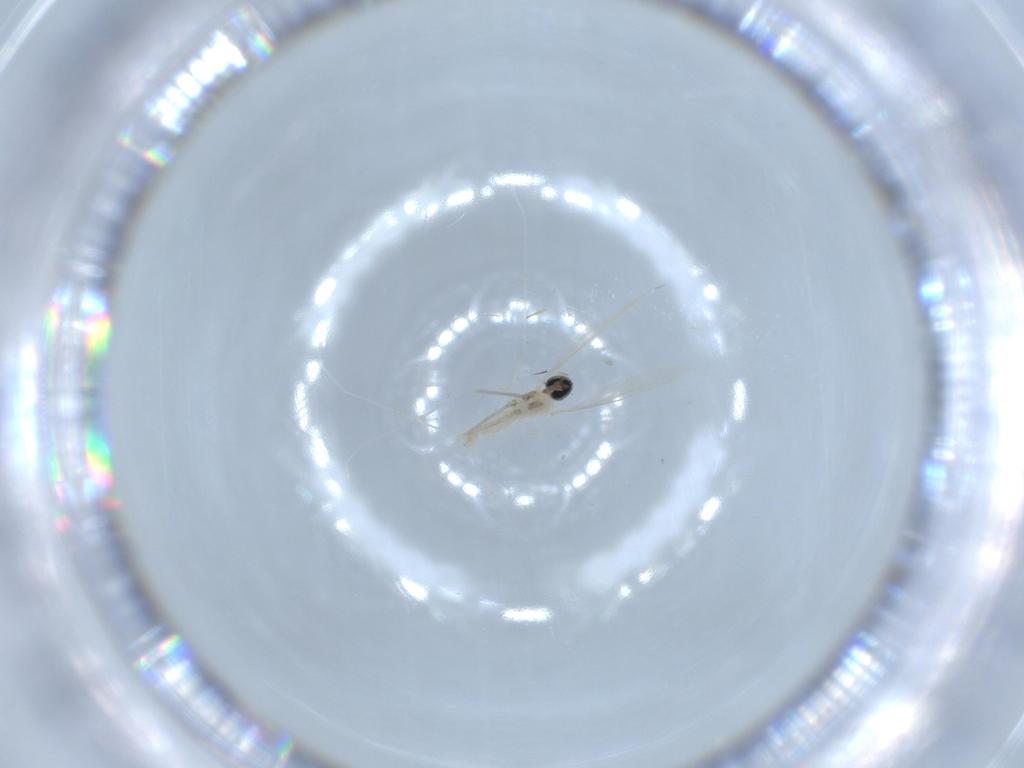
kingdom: Animalia
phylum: Arthropoda
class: Insecta
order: Diptera
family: Cecidomyiidae
